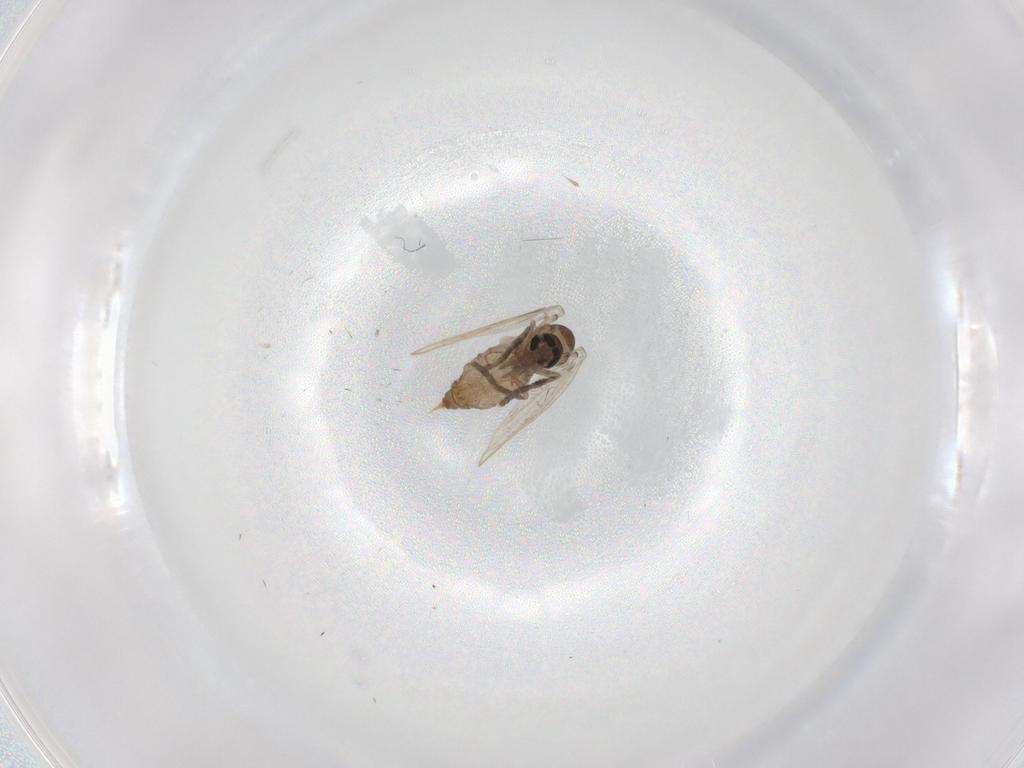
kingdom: Animalia
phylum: Arthropoda
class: Insecta
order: Diptera
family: Psychodidae
